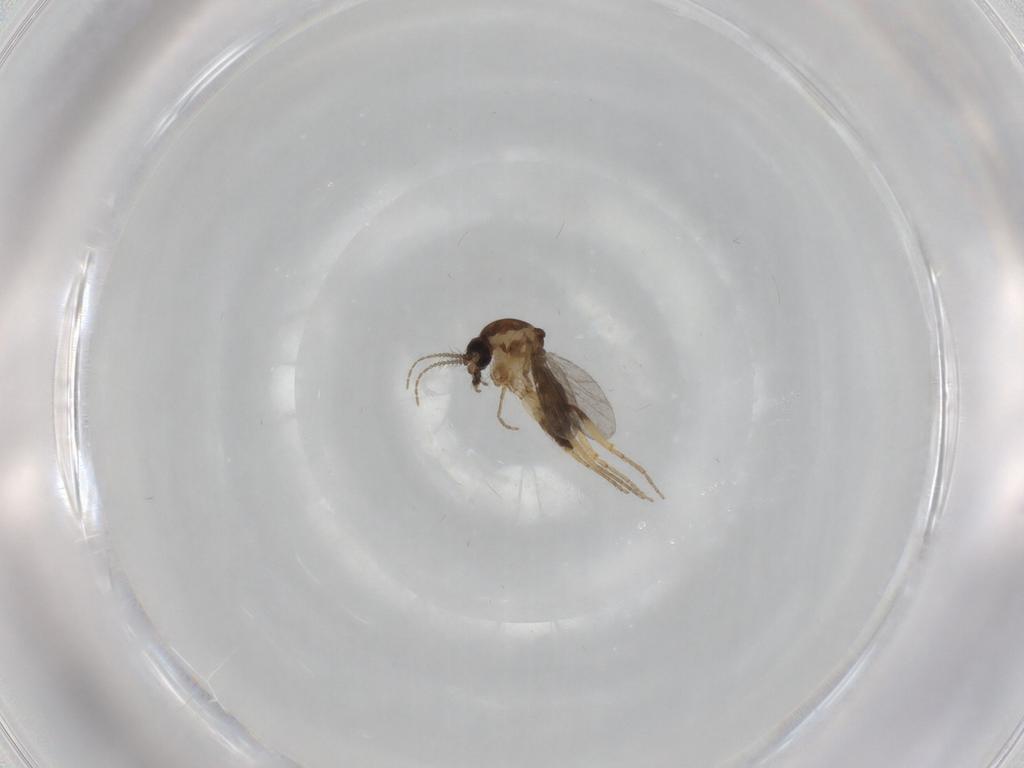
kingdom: Animalia
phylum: Arthropoda
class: Insecta
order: Diptera
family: Ceratopogonidae
